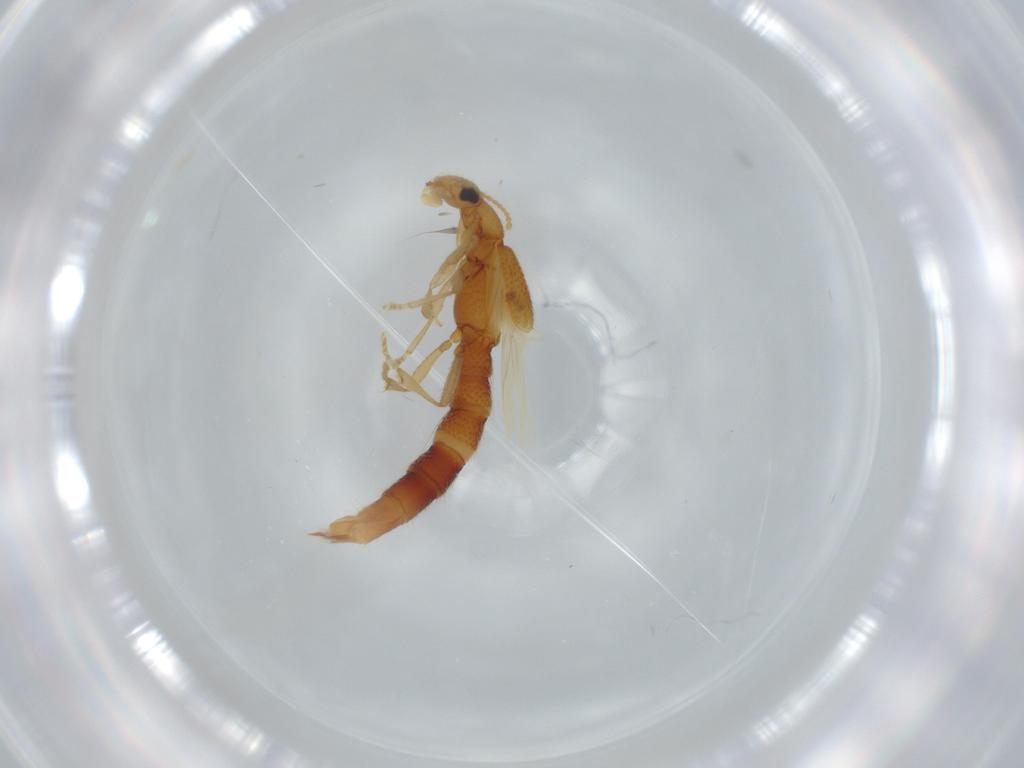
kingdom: Animalia
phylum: Arthropoda
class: Insecta
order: Coleoptera
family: Staphylinidae
